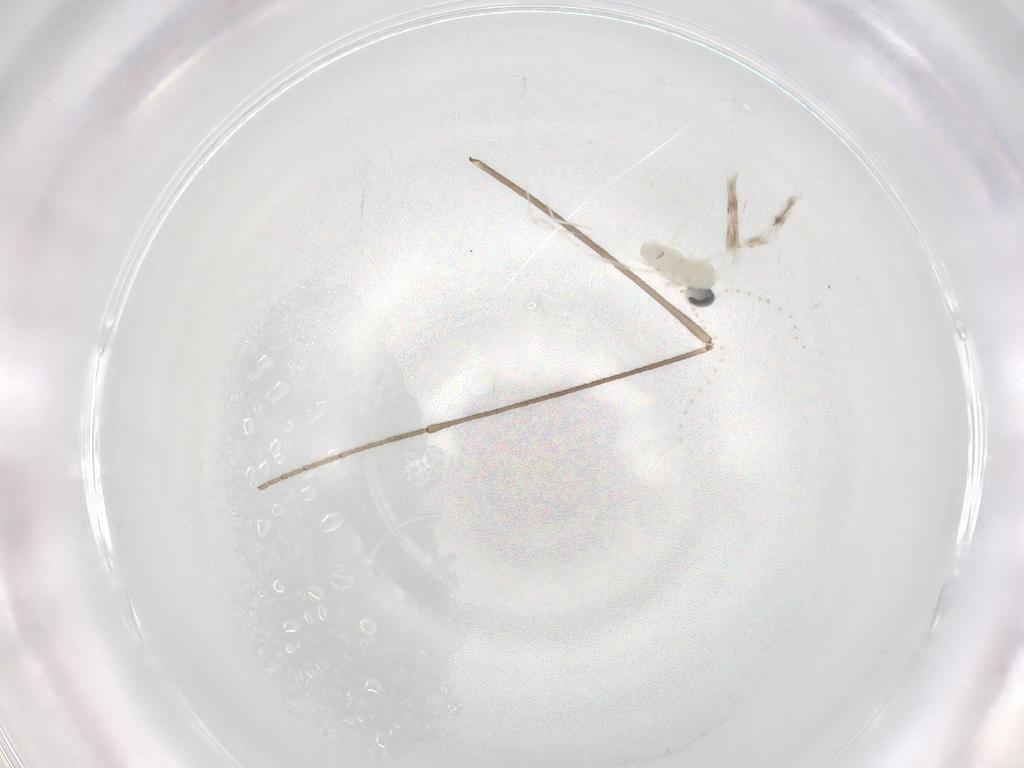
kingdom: Animalia
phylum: Arthropoda
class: Insecta
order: Diptera
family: Cecidomyiidae
